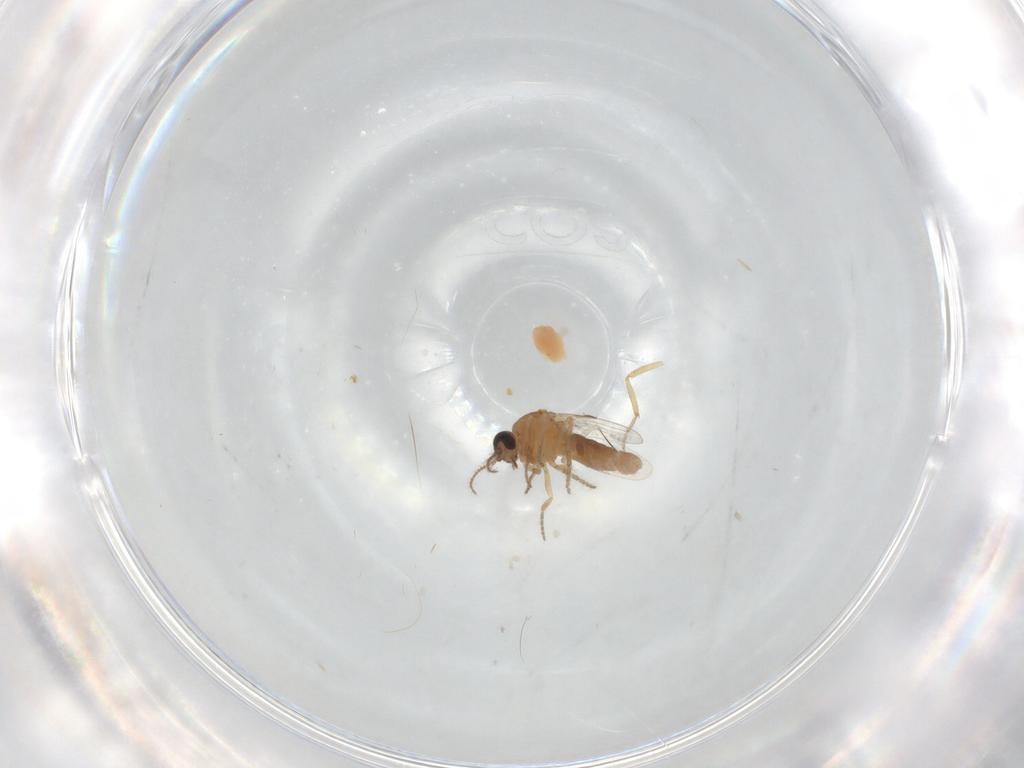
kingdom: Animalia
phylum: Arthropoda
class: Insecta
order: Diptera
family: Ceratopogonidae
